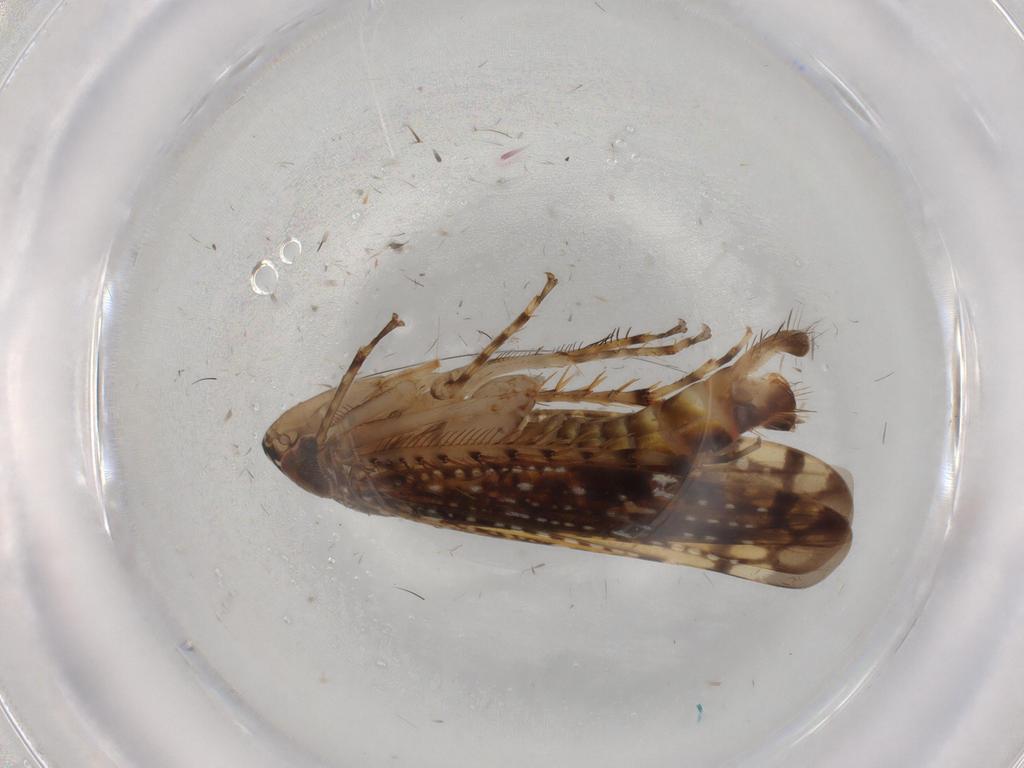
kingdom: Animalia
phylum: Arthropoda
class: Insecta
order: Hemiptera
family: Cicadellidae
